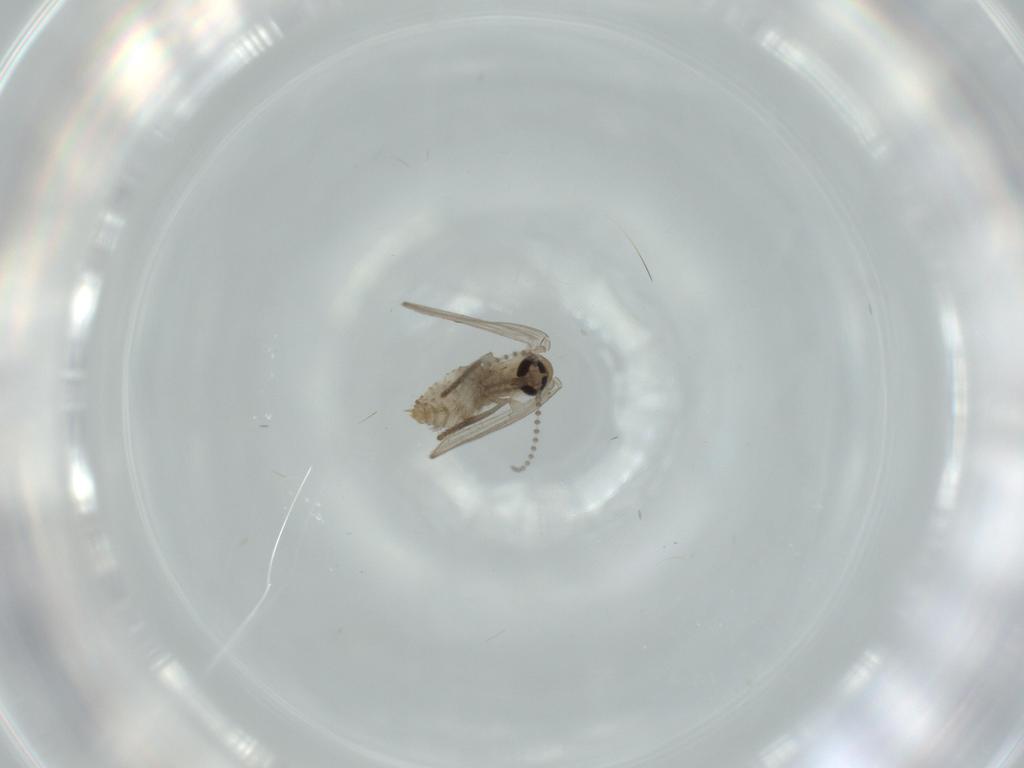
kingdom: Animalia
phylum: Arthropoda
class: Insecta
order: Diptera
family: Psychodidae
